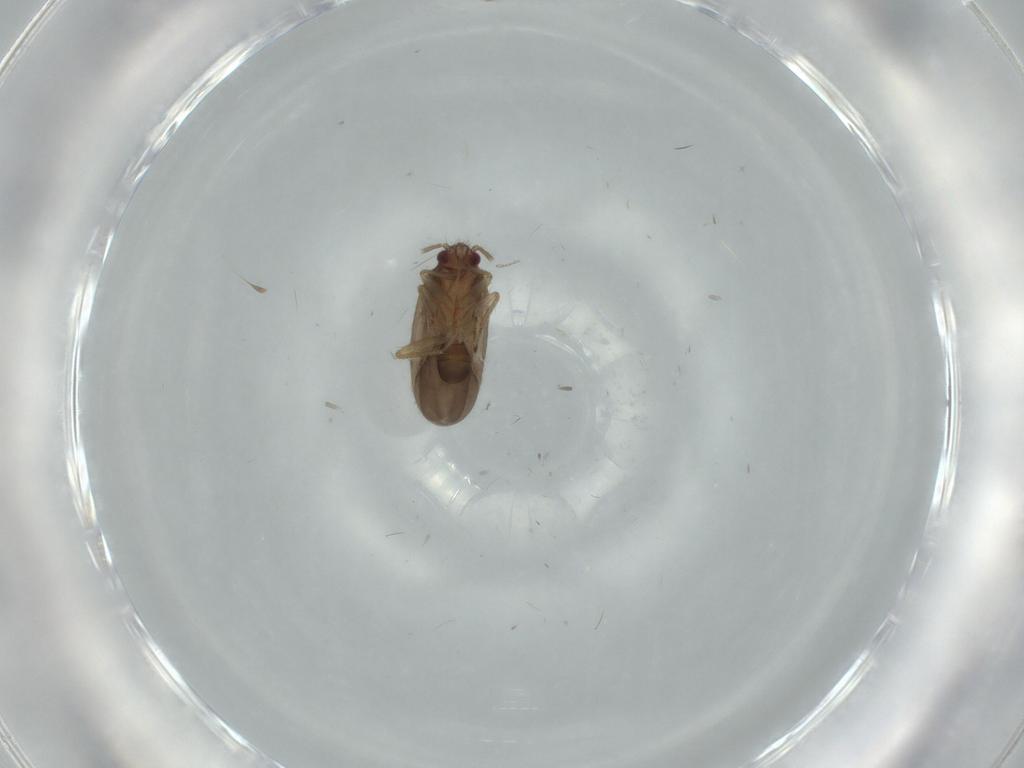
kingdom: Animalia
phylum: Arthropoda
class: Insecta
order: Hemiptera
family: Ceratocombidae
